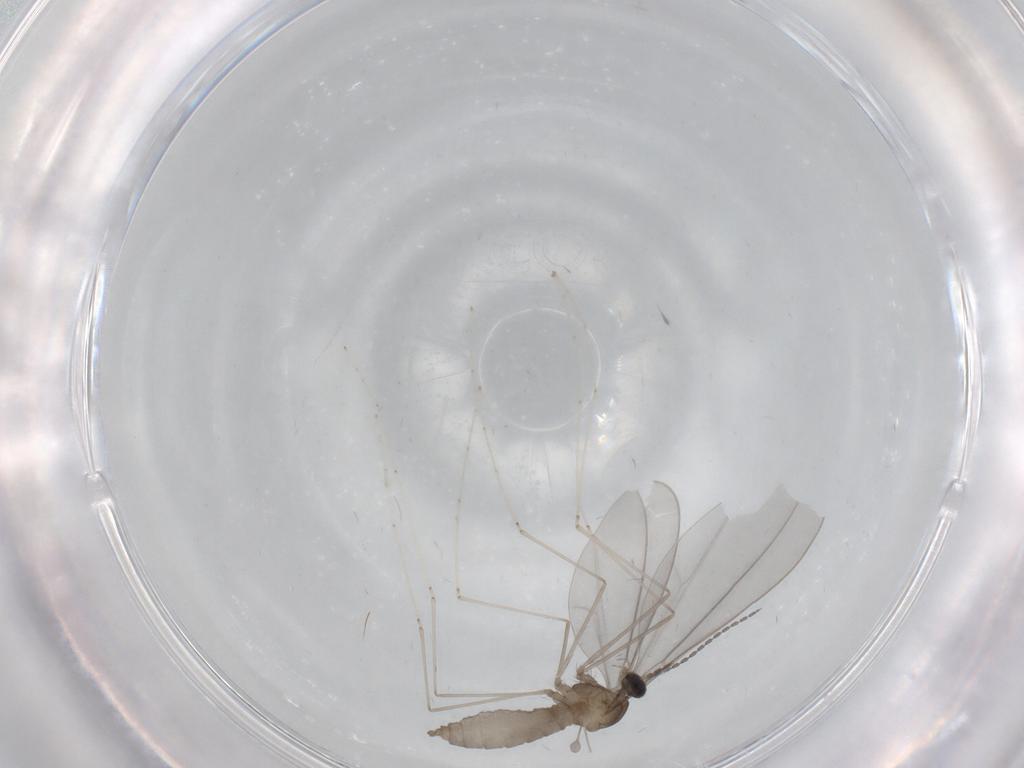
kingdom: Animalia
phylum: Arthropoda
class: Insecta
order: Diptera
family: Cecidomyiidae
